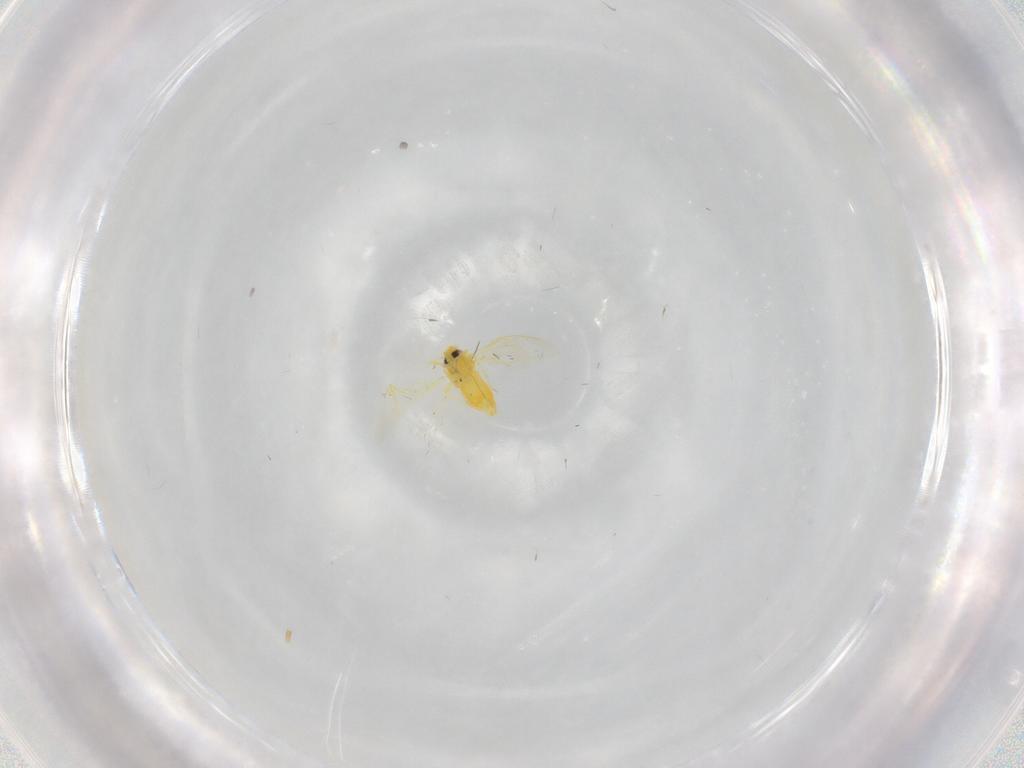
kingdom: Animalia
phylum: Arthropoda
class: Insecta
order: Hemiptera
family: Aleyrodidae
